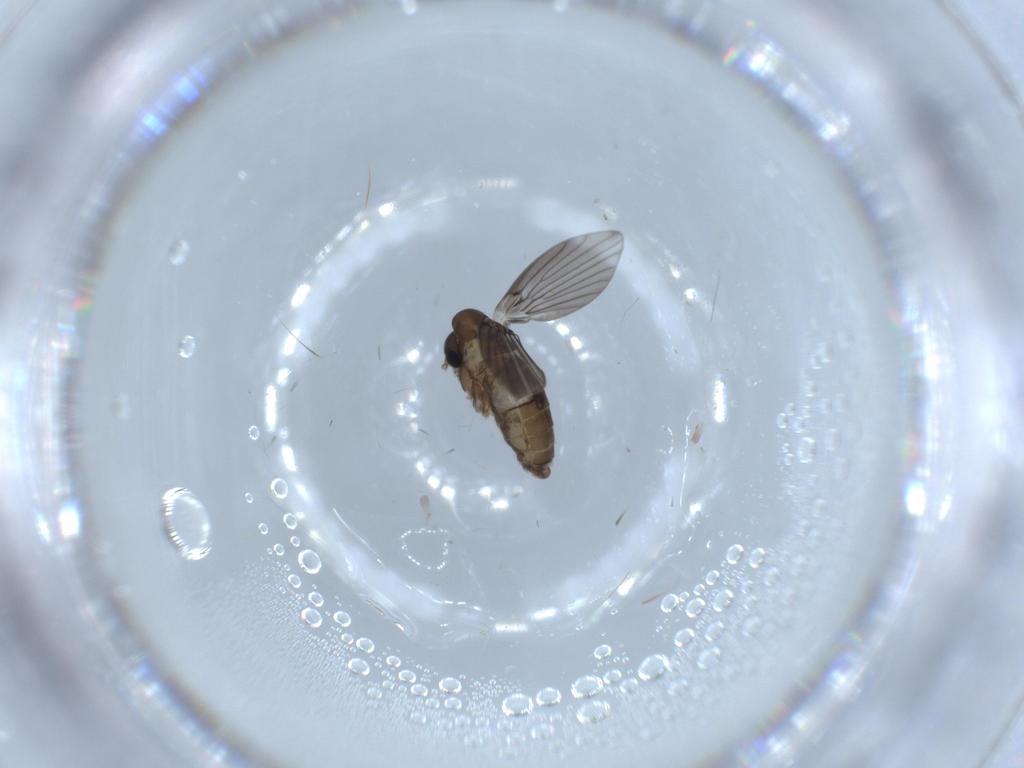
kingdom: Animalia
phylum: Arthropoda
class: Insecta
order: Diptera
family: Psychodidae
